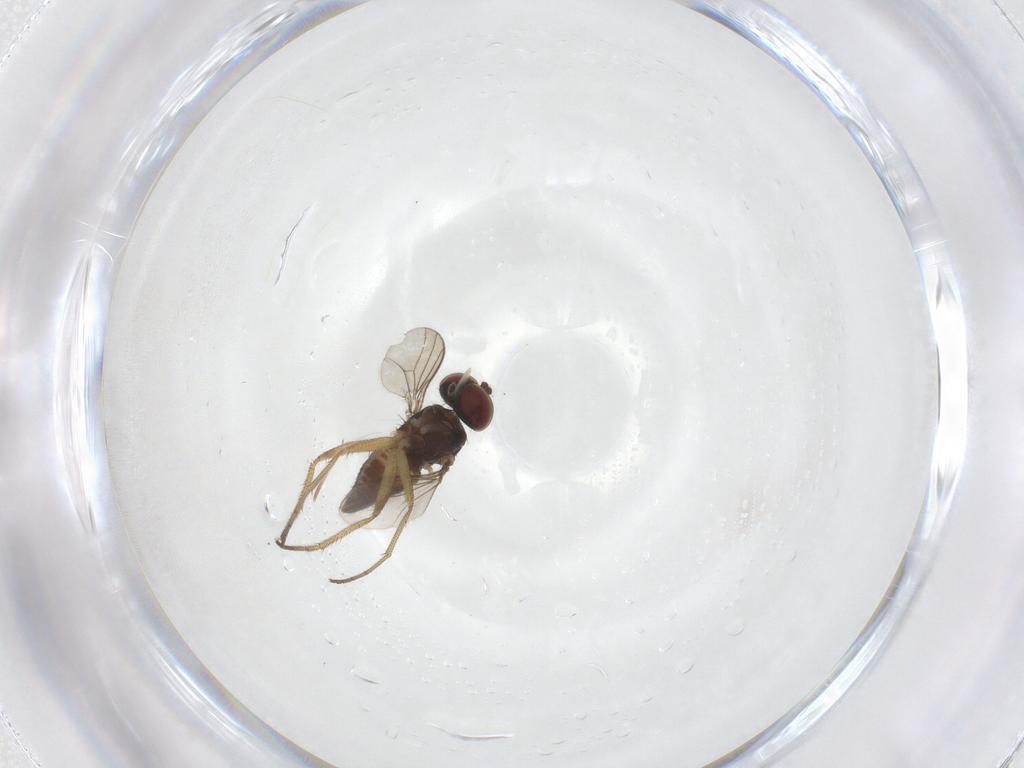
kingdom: Animalia
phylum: Arthropoda
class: Insecta
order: Diptera
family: Dolichopodidae
